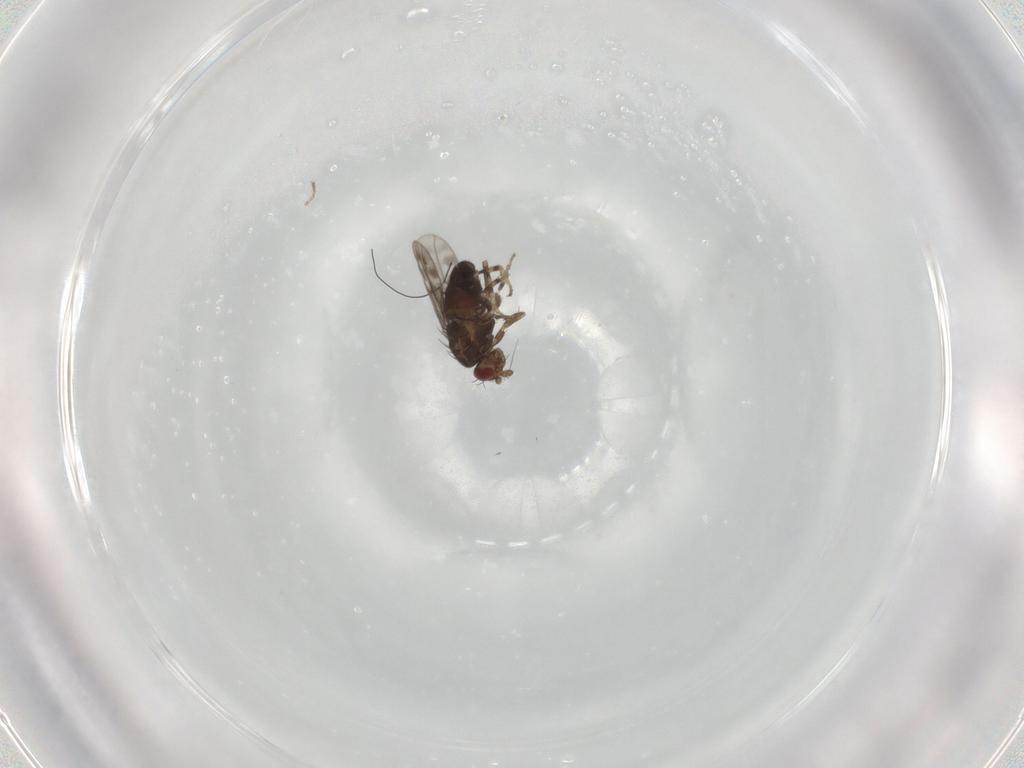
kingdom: Animalia
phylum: Arthropoda
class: Insecta
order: Diptera
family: Sphaeroceridae
